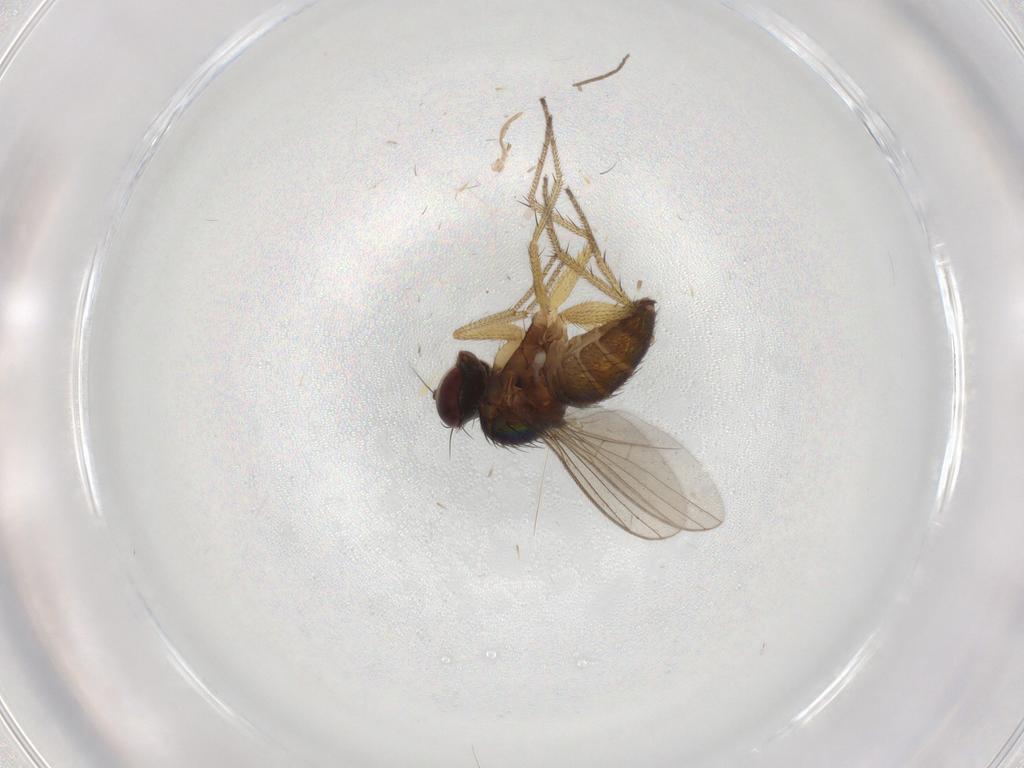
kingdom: Animalia
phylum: Arthropoda
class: Insecta
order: Diptera
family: Dolichopodidae
